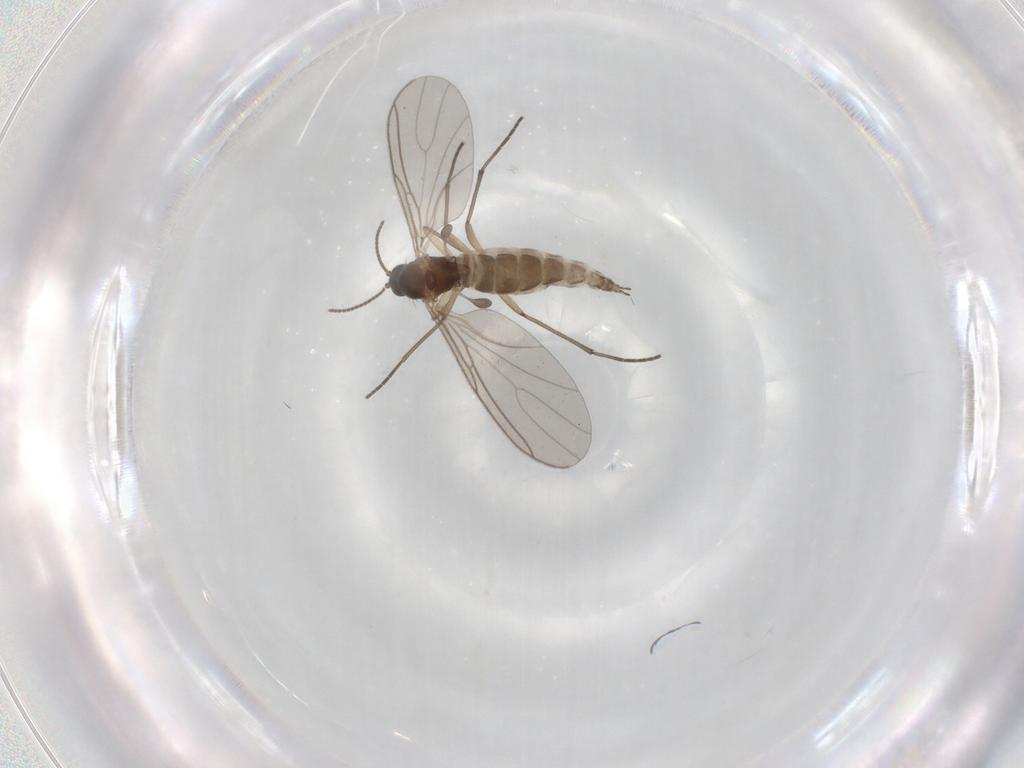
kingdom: Animalia
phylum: Arthropoda
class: Insecta
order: Diptera
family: Sciaridae
